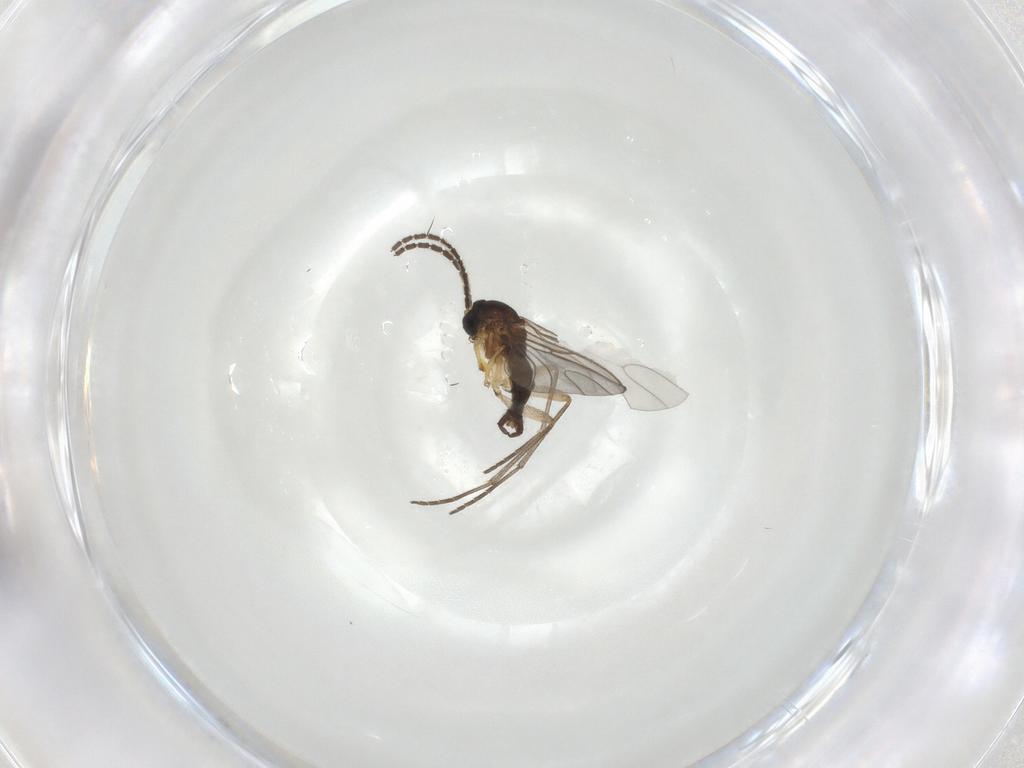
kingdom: Animalia
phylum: Arthropoda
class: Insecta
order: Diptera
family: Sciaridae
